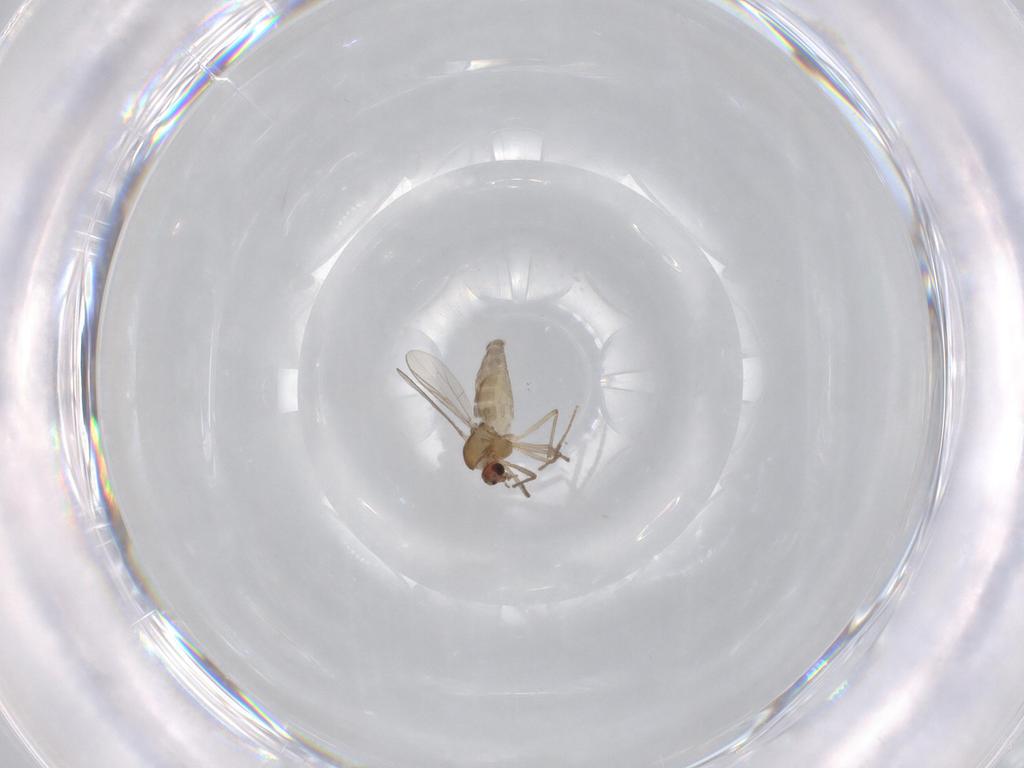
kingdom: Animalia
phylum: Arthropoda
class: Insecta
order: Diptera
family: Chironomidae
